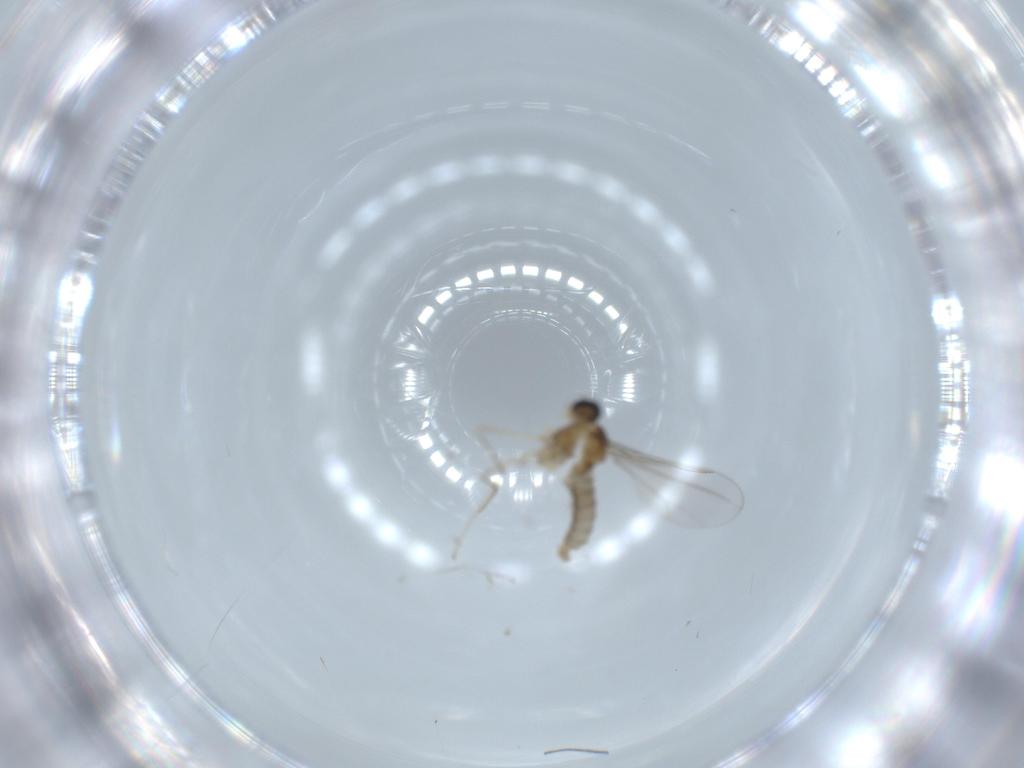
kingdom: Animalia
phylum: Arthropoda
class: Insecta
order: Diptera
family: Cecidomyiidae
